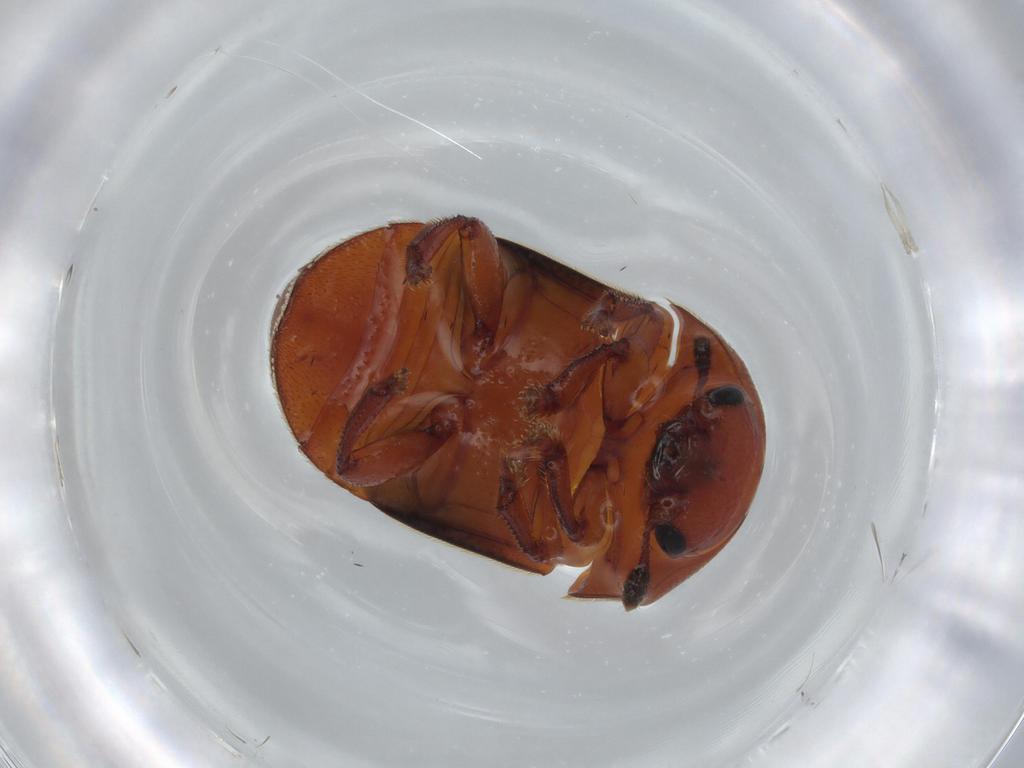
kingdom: Animalia
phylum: Arthropoda
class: Insecta
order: Coleoptera
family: Nitidulidae
